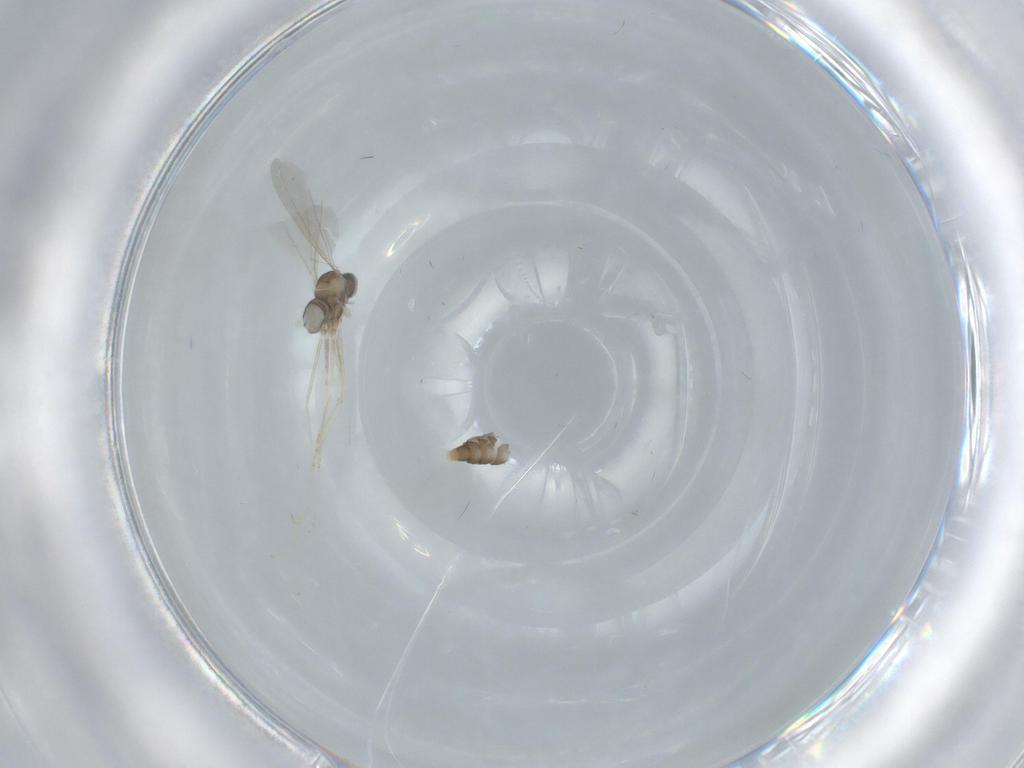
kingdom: Animalia
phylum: Arthropoda
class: Insecta
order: Diptera
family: Cecidomyiidae
